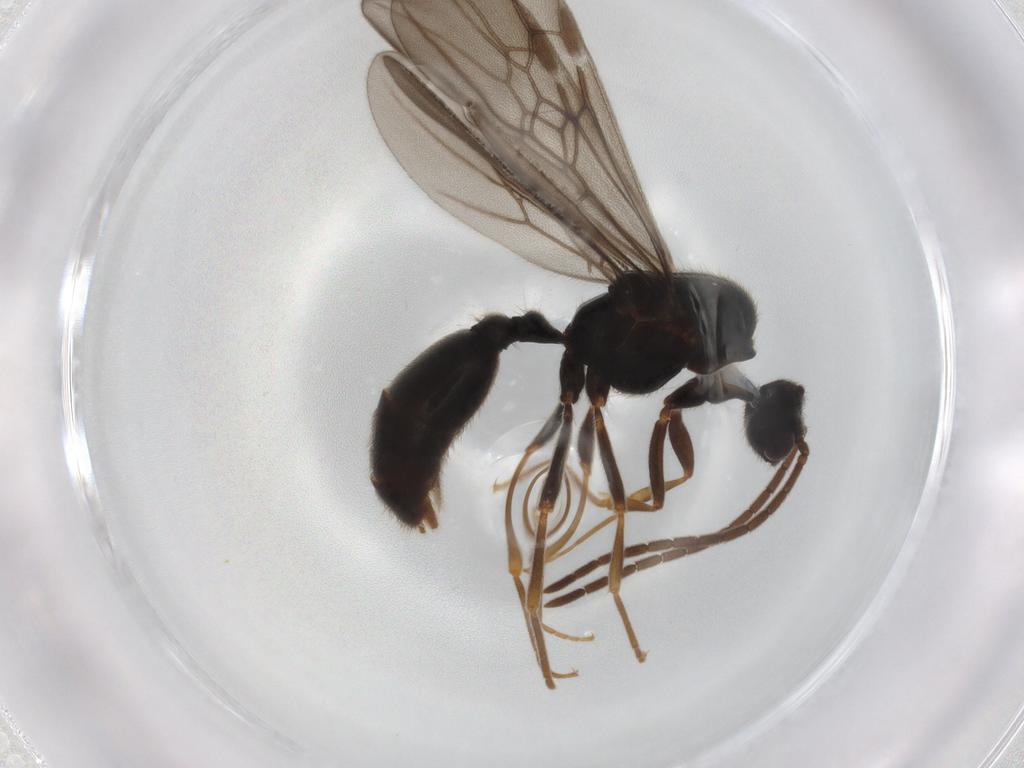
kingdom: Animalia
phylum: Arthropoda
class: Insecta
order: Hymenoptera
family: Formicidae
